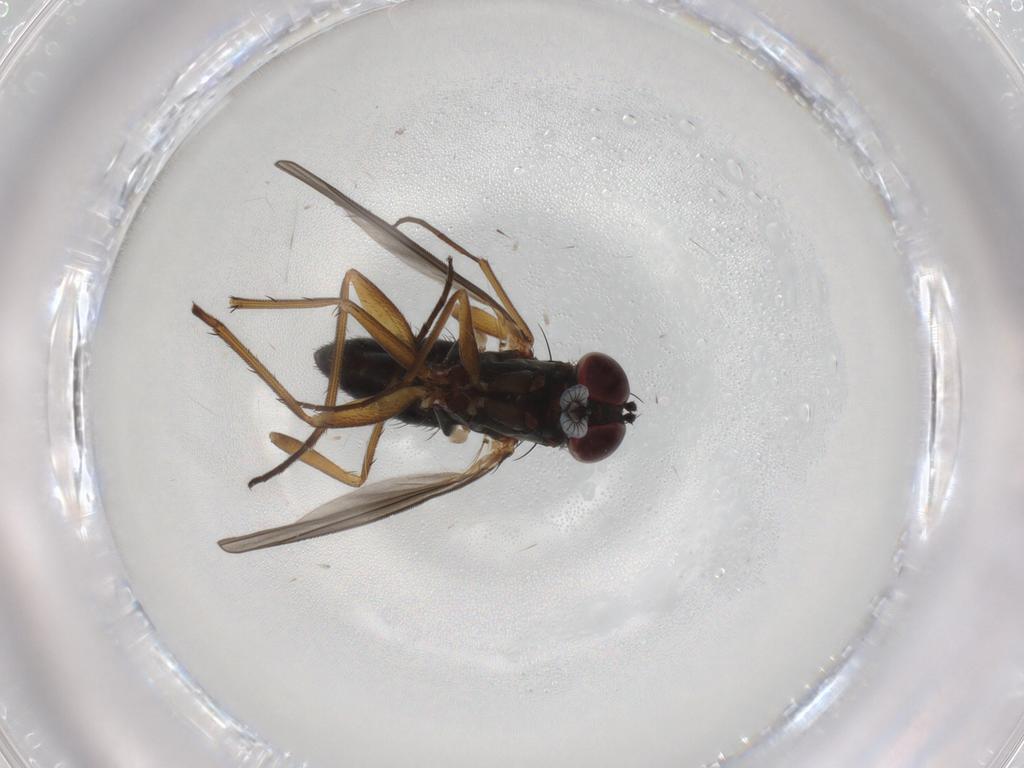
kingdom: Animalia
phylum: Arthropoda
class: Insecta
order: Diptera
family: Dolichopodidae
